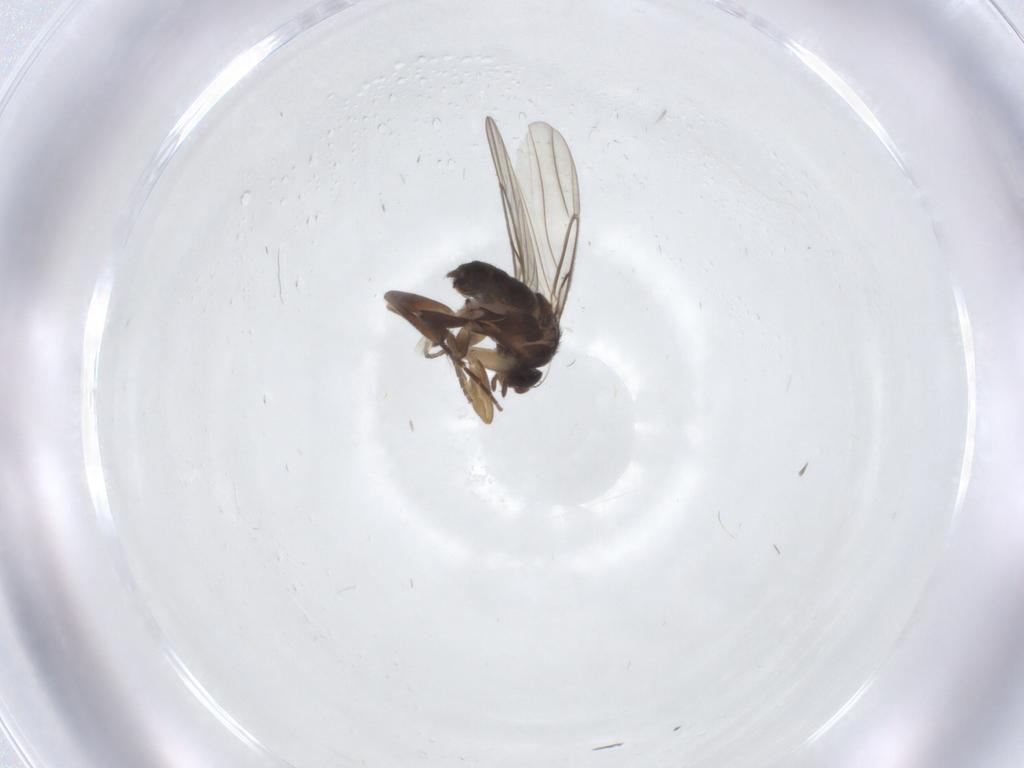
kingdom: Animalia
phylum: Arthropoda
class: Insecta
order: Diptera
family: Phoridae
